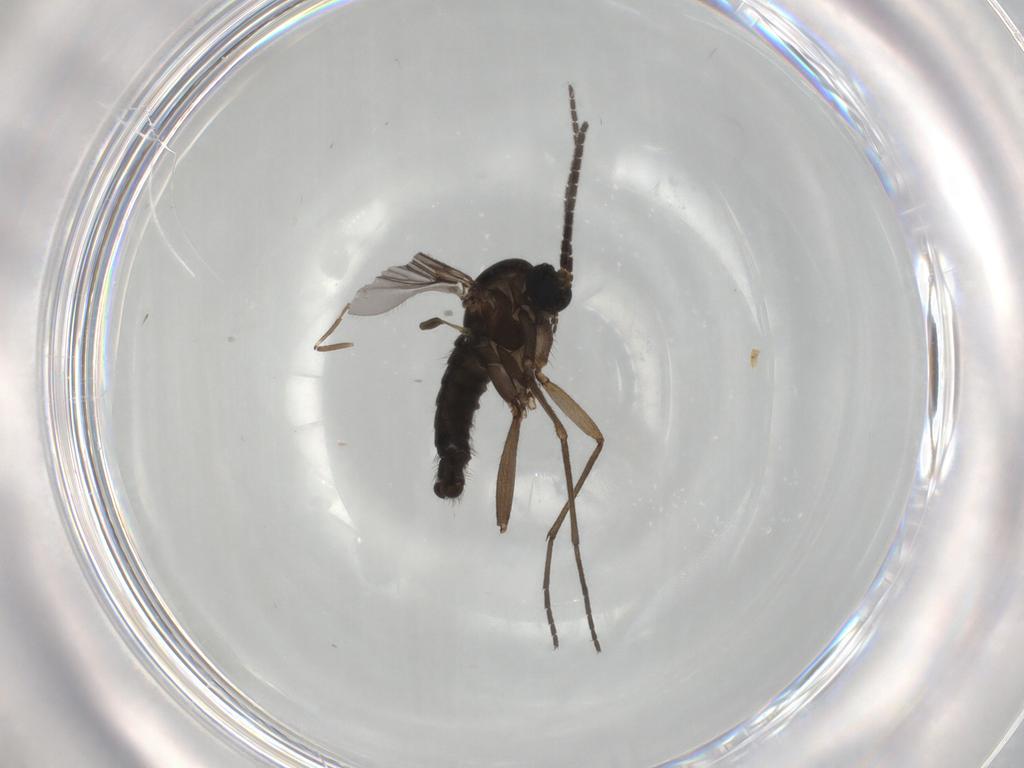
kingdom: Animalia
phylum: Arthropoda
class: Insecta
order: Diptera
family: Sciaridae
